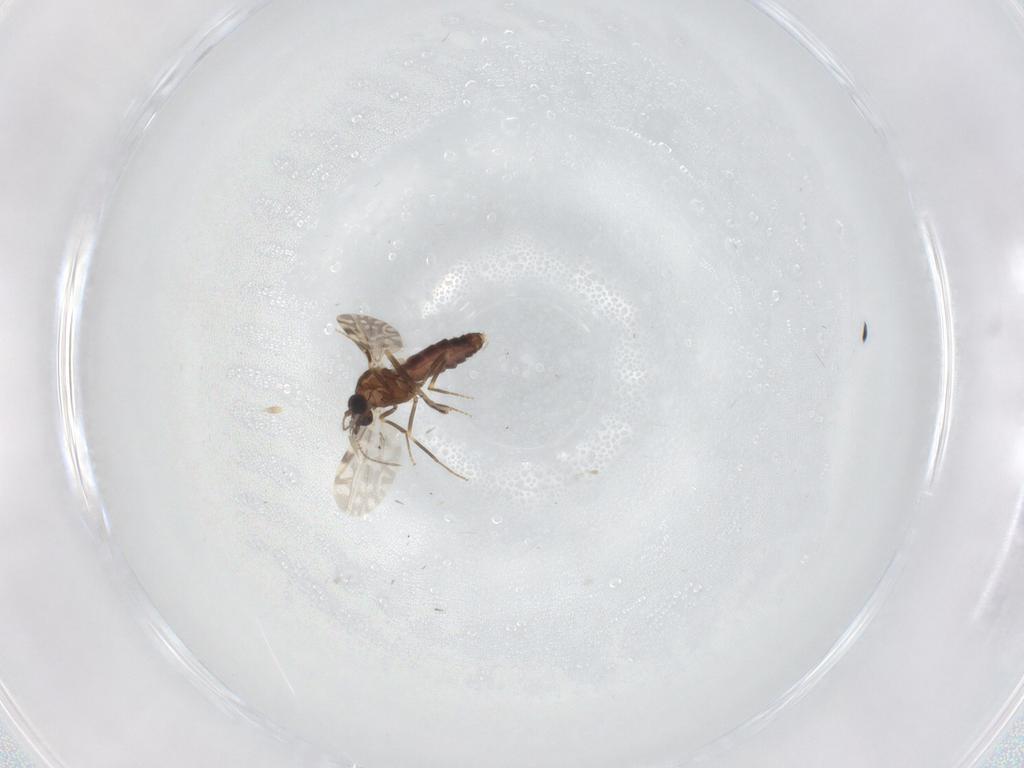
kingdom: Animalia
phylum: Arthropoda
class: Insecta
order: Diptera
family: Ceratopogonidae
